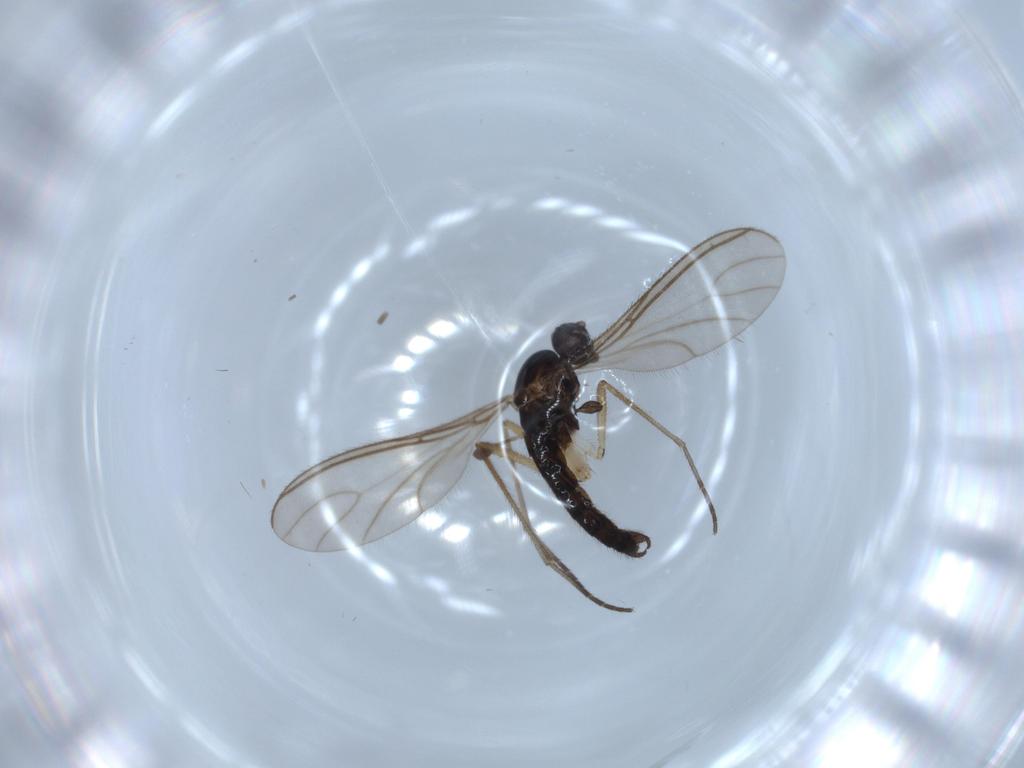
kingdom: Animalia
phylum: Arthropoda
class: Insecta
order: Diptera
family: Sciaridae
